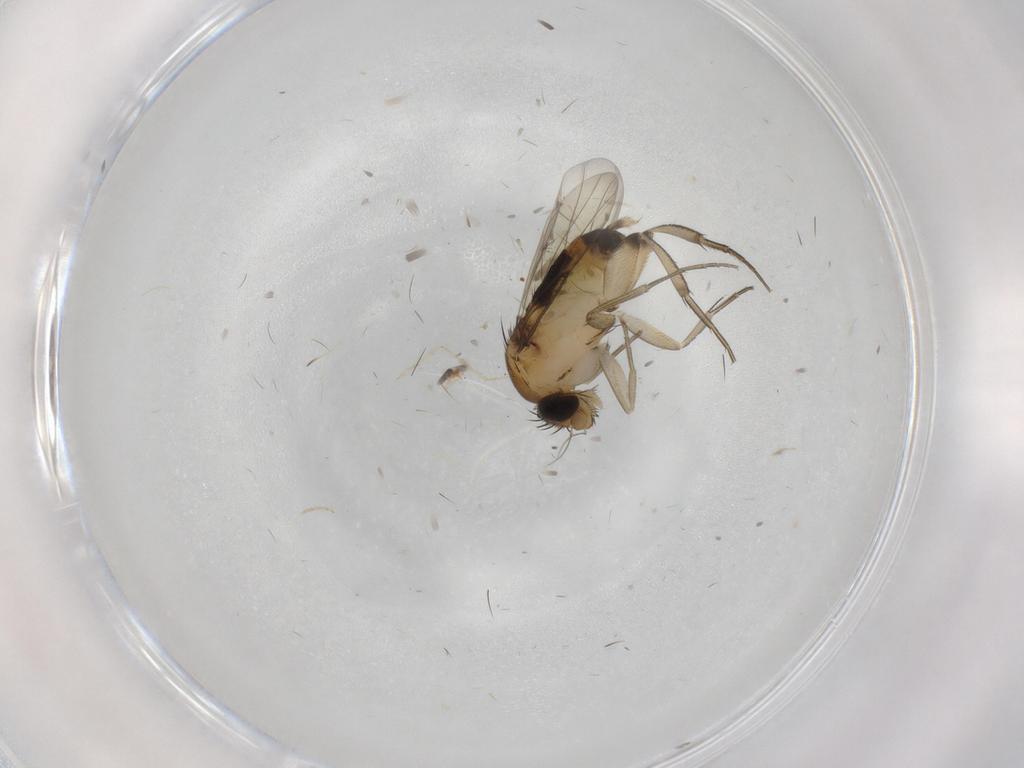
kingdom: Animalia
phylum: Arthropoda
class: Insecta
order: Diptera
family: Phoridae
